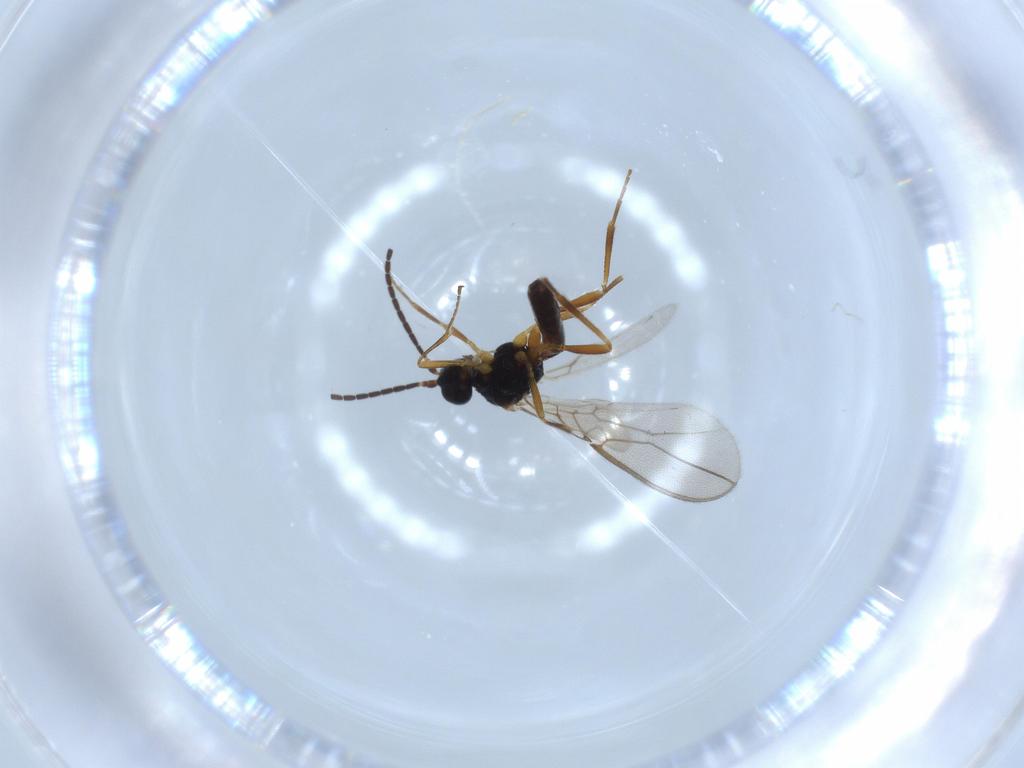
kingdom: Animalia
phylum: Arthropoda
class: Insecta
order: Hymenoptera
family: Braconidae
